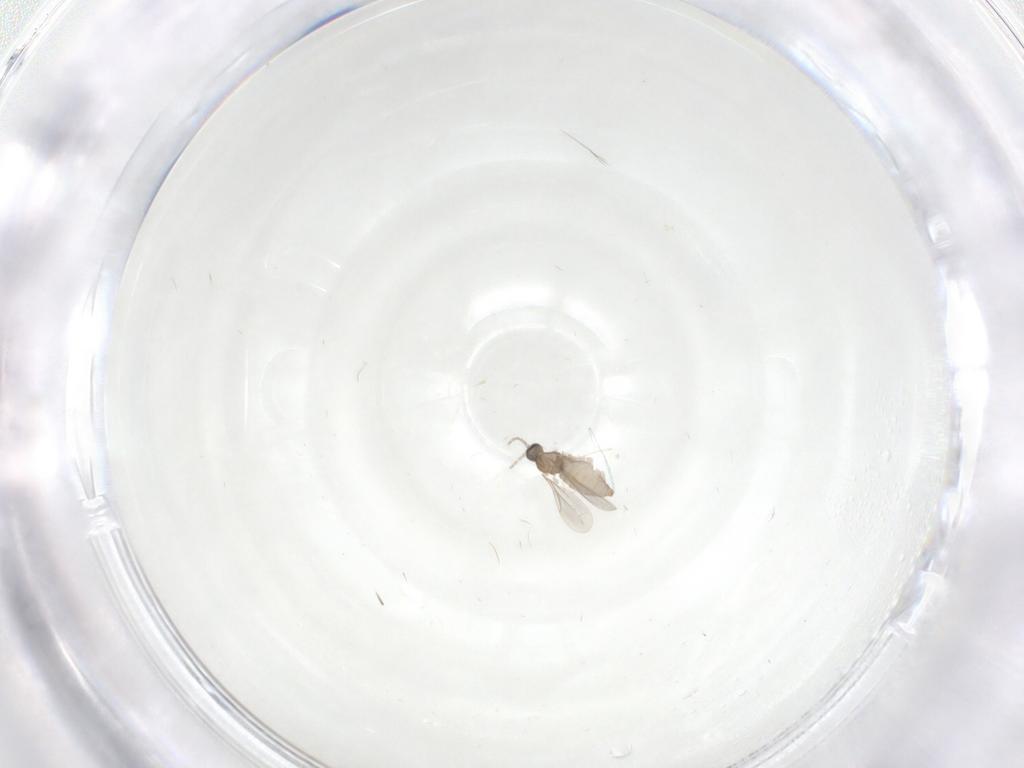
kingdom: Animalia
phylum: Arthropoda
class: Insecta
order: Diptera
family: Cecidomyiidae
